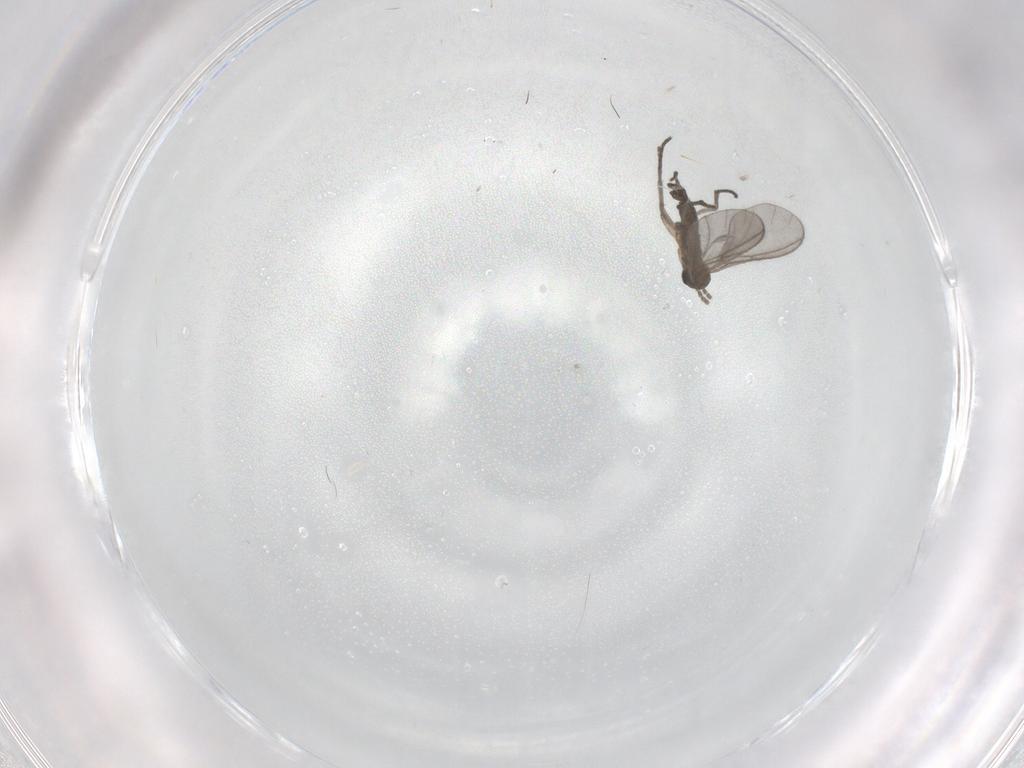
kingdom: Animalia
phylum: Arthropoda
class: Insecta
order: Diptera
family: Sciaridae
